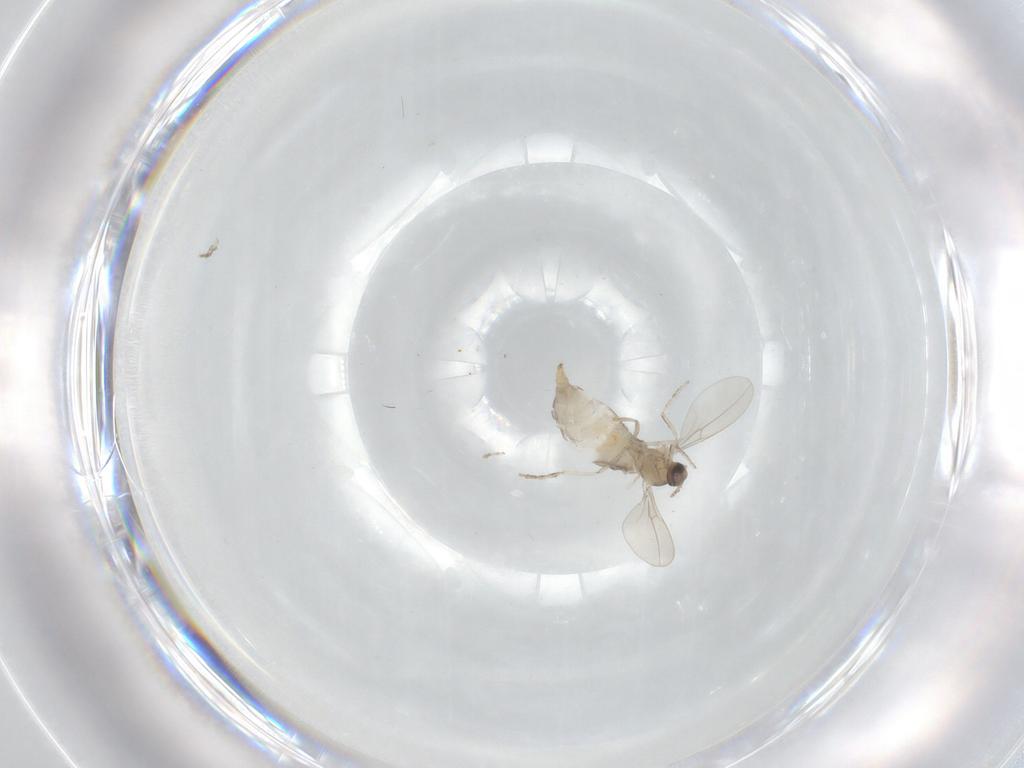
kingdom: Animalia
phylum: Arthropoda
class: Insecta
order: Diptera
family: Cecidomyiidae
